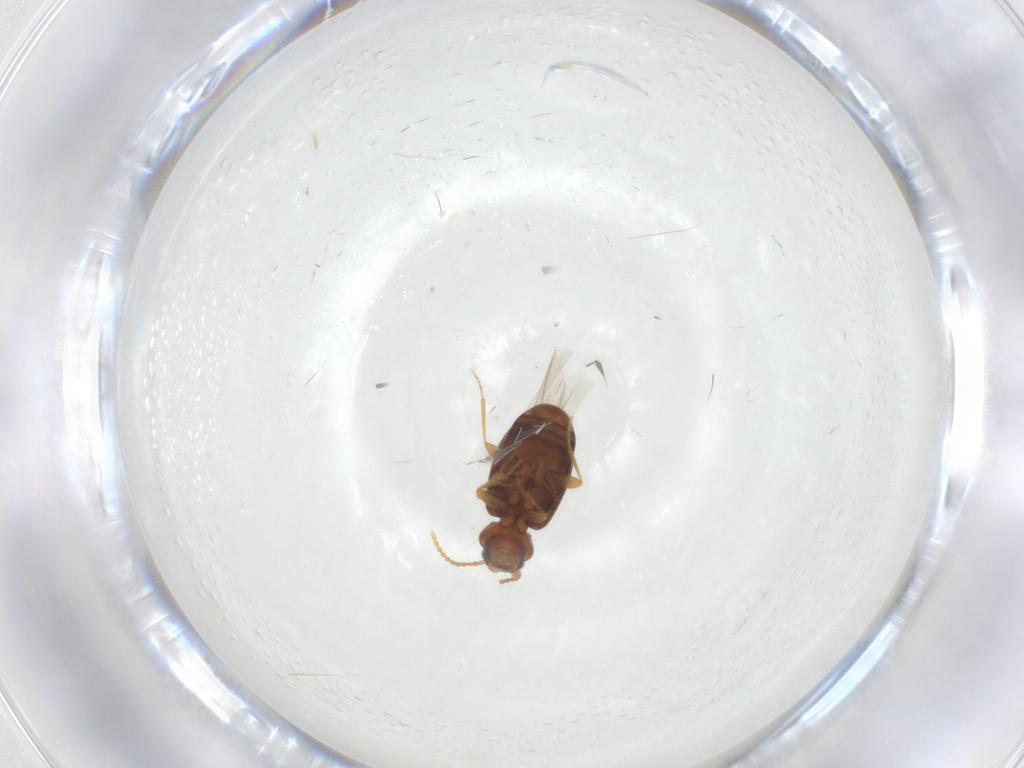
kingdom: Animalia
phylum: Arthropoda
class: Insecta
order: Coleoptera
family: Carabidae
